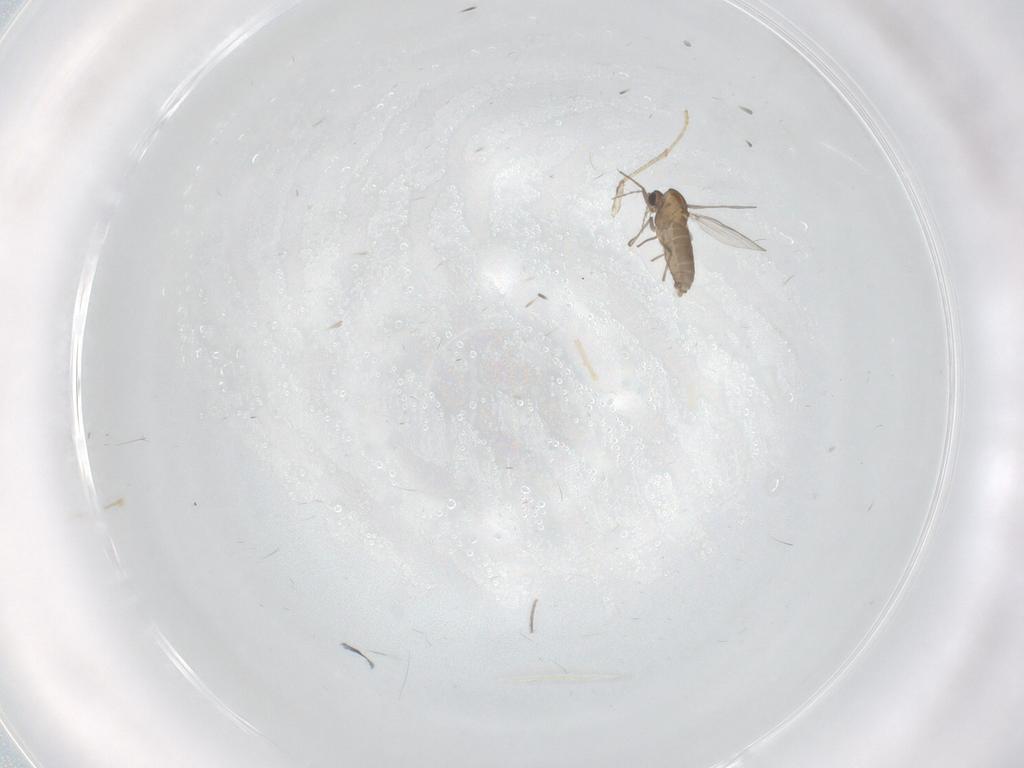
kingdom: Animalia
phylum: Arthropoda
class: Insecta
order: Diptera
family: Chironomidae
